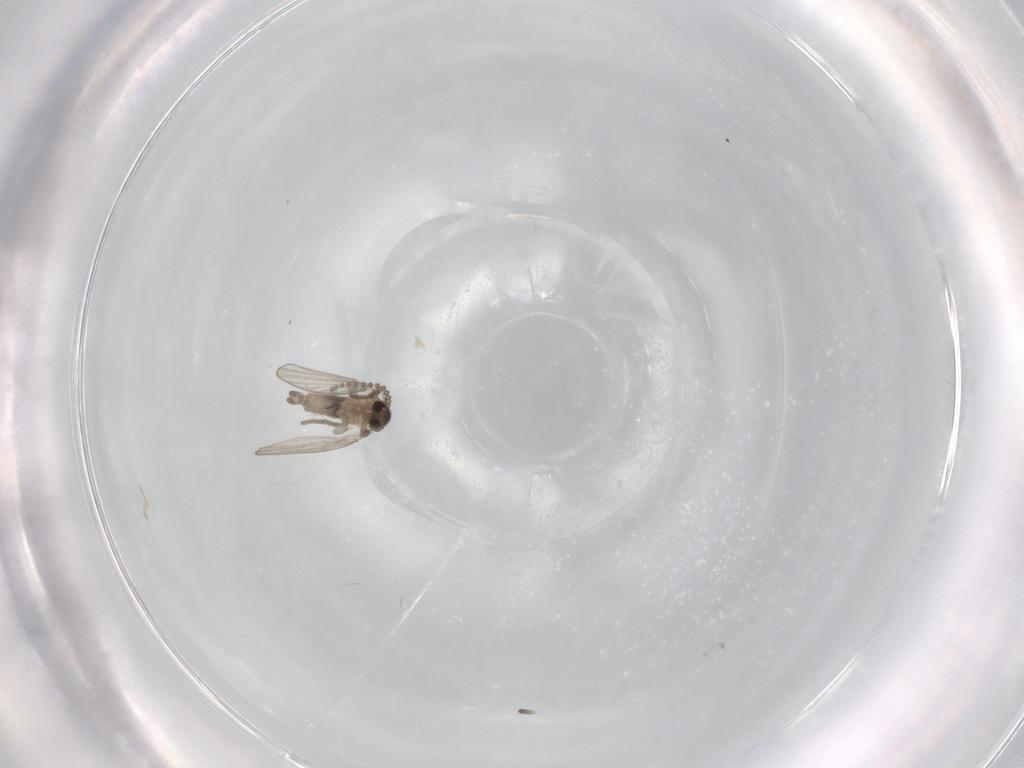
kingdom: Animalia
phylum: Arthropoda
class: Insecta
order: Diptera
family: Psychodidae
